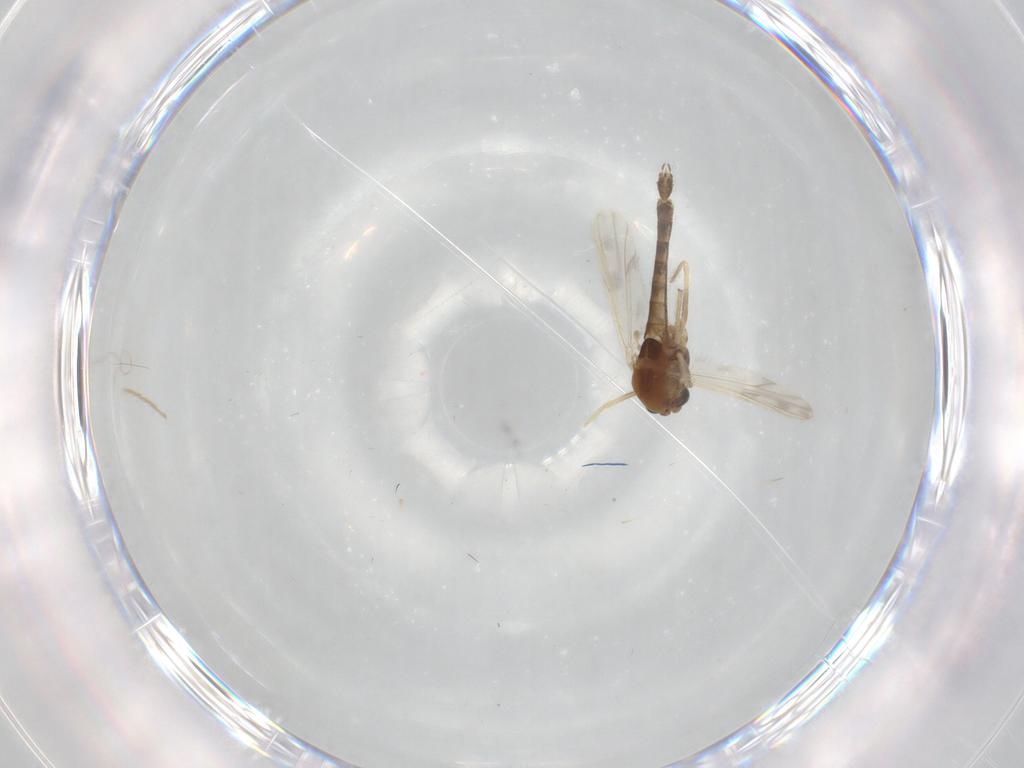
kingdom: Animalia
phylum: Arthropoda
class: Insecta
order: Diptera
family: Chironomidae
